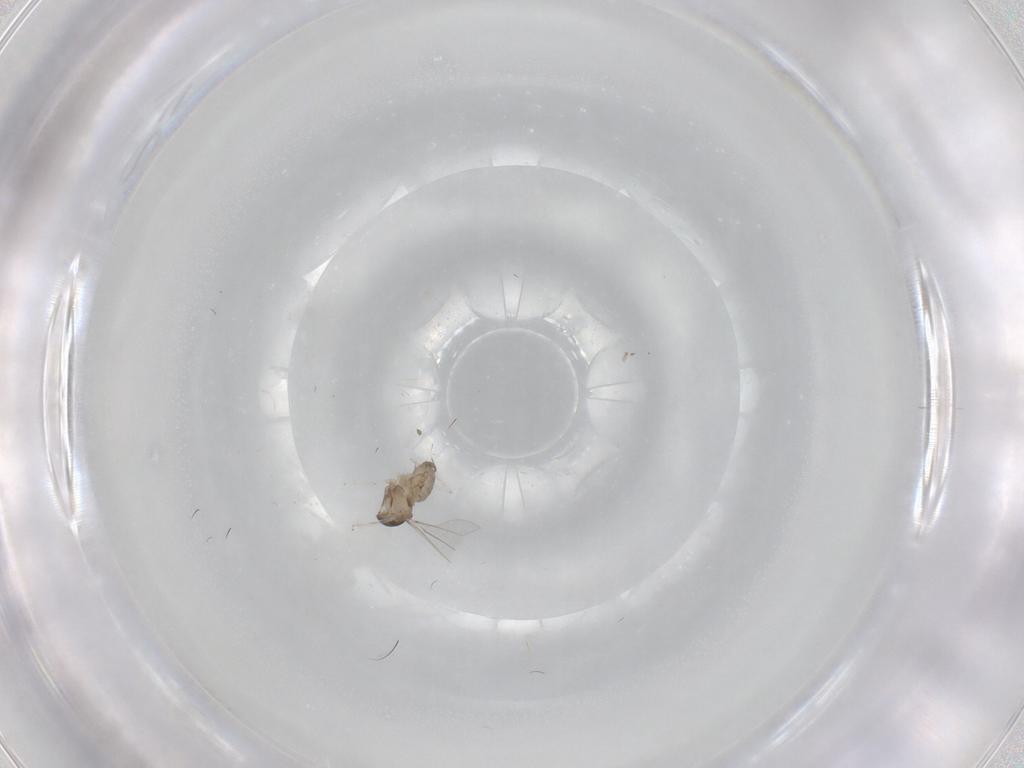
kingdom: Animalia
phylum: Arthropoda
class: Insecta
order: Diptera
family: Cecidomyiidae
